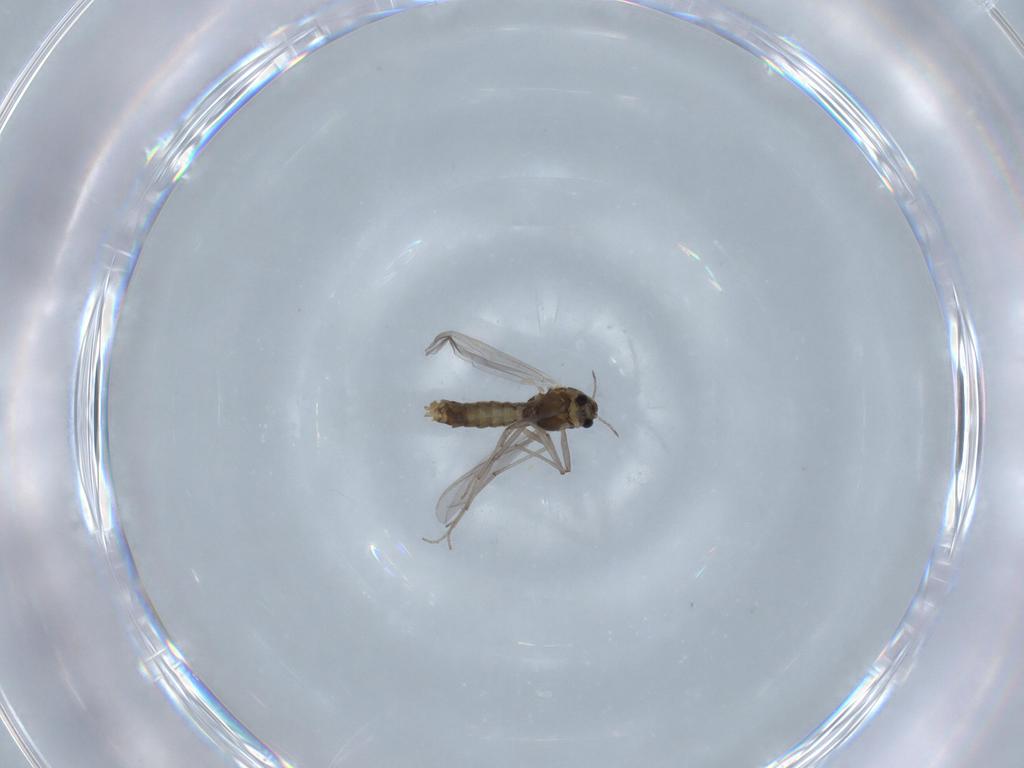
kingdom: Animalia
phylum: Arthropoda
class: Insecta
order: Diptera
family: Chironomidae
